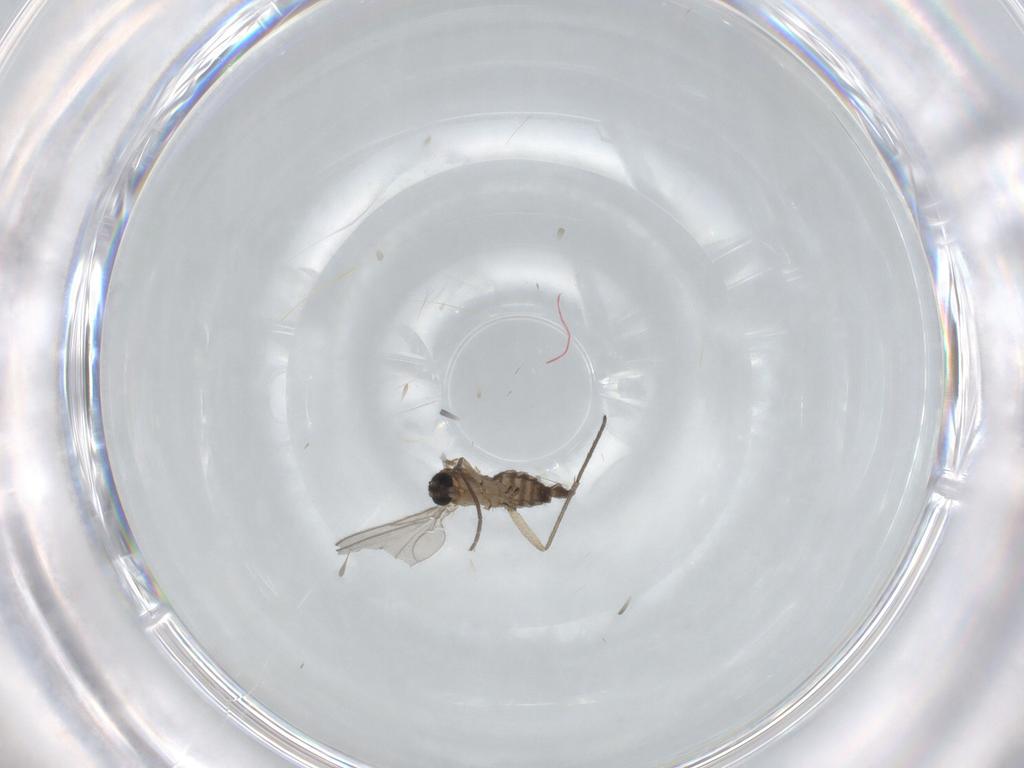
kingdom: Animalia
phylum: Arthropoda
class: Insecta
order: Diptera
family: Sciaridae
